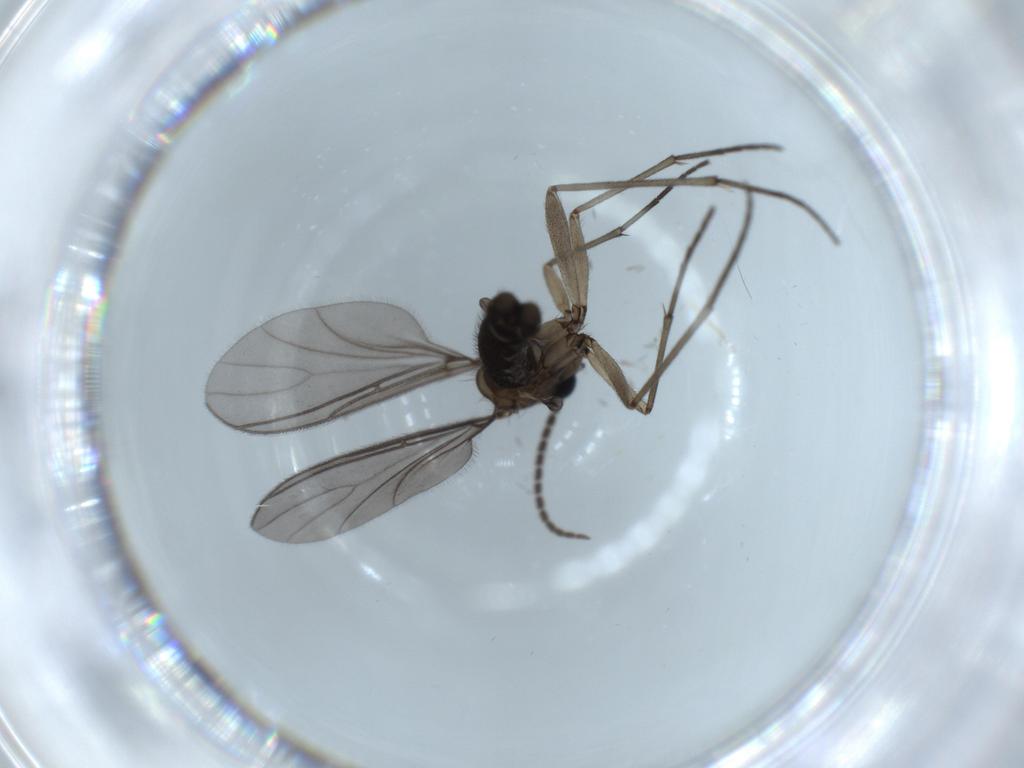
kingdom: Animalia
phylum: Arthropoda
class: Insecta
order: Diptera
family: Sciaridae
